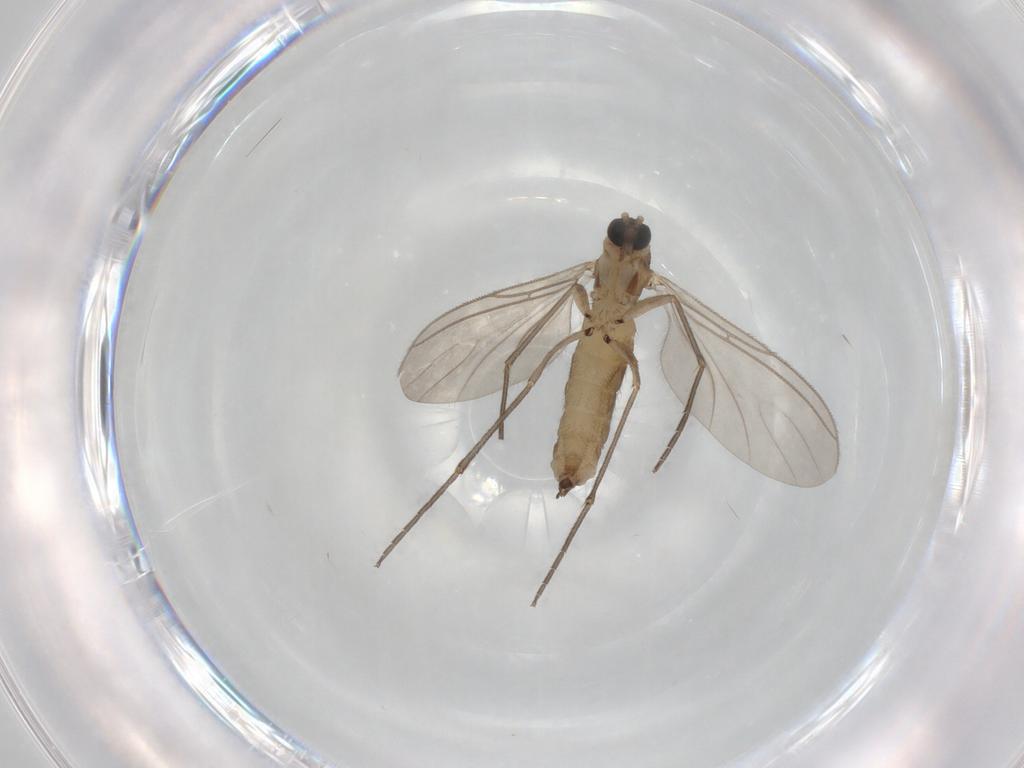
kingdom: Animalia
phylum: Arthropoda
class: Insecta
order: Diptera
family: Sciaridae
